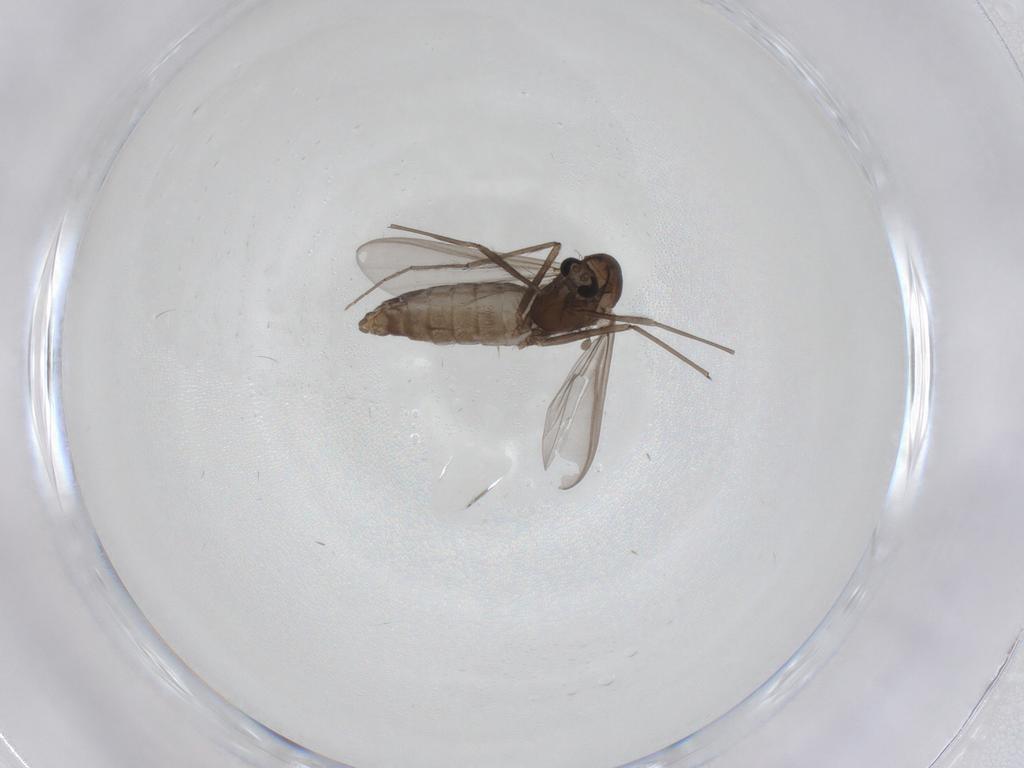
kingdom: Animalia
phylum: Arthropoda
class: Insecta
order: Diptera
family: Chironomidae
